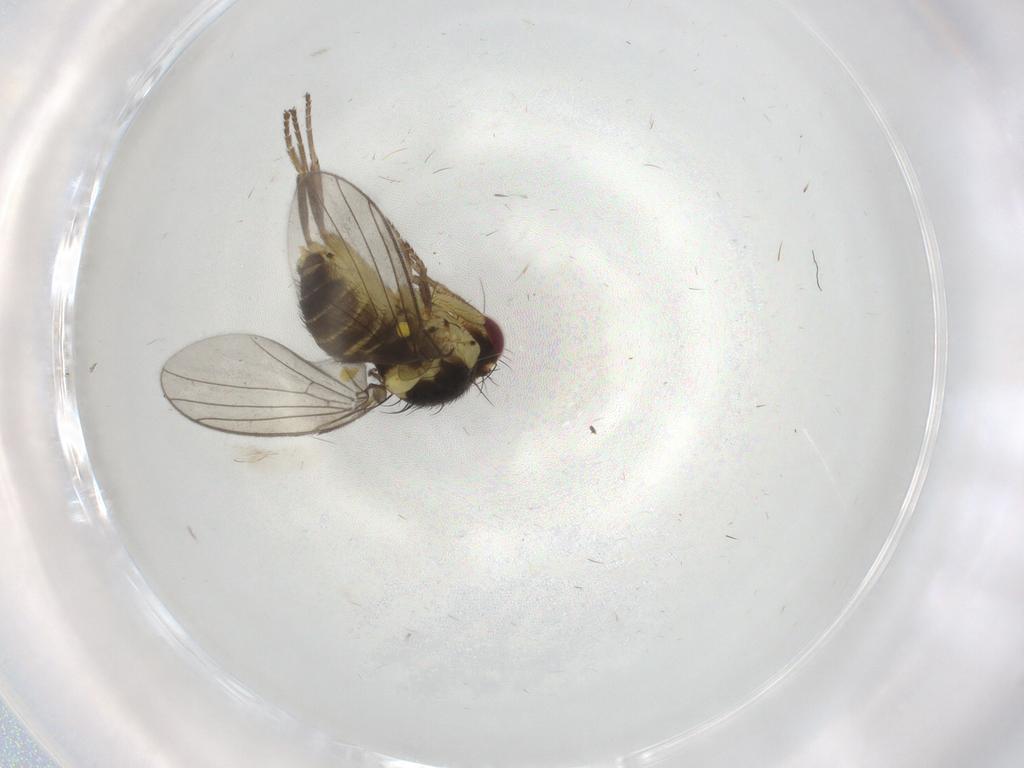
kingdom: Animalia
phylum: Arthropoda
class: Insecta
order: Diptera
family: Agromyzidae
